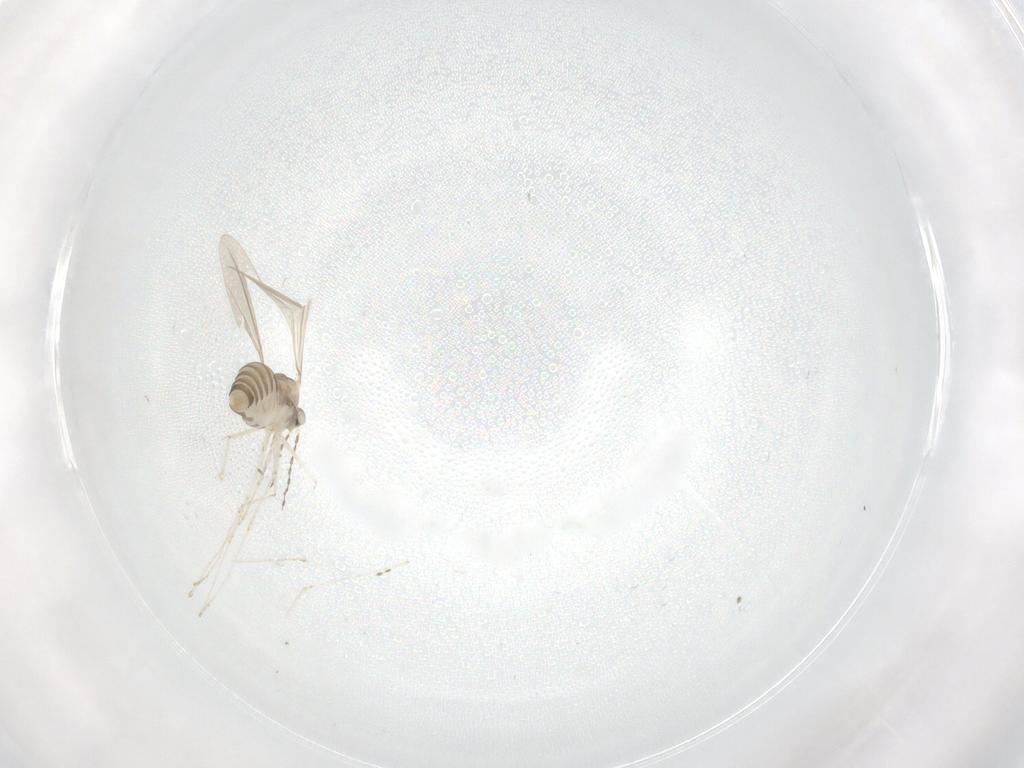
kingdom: Animalia
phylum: Arthropoda
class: Insecta
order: Diptera
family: Cecidomyiidae
